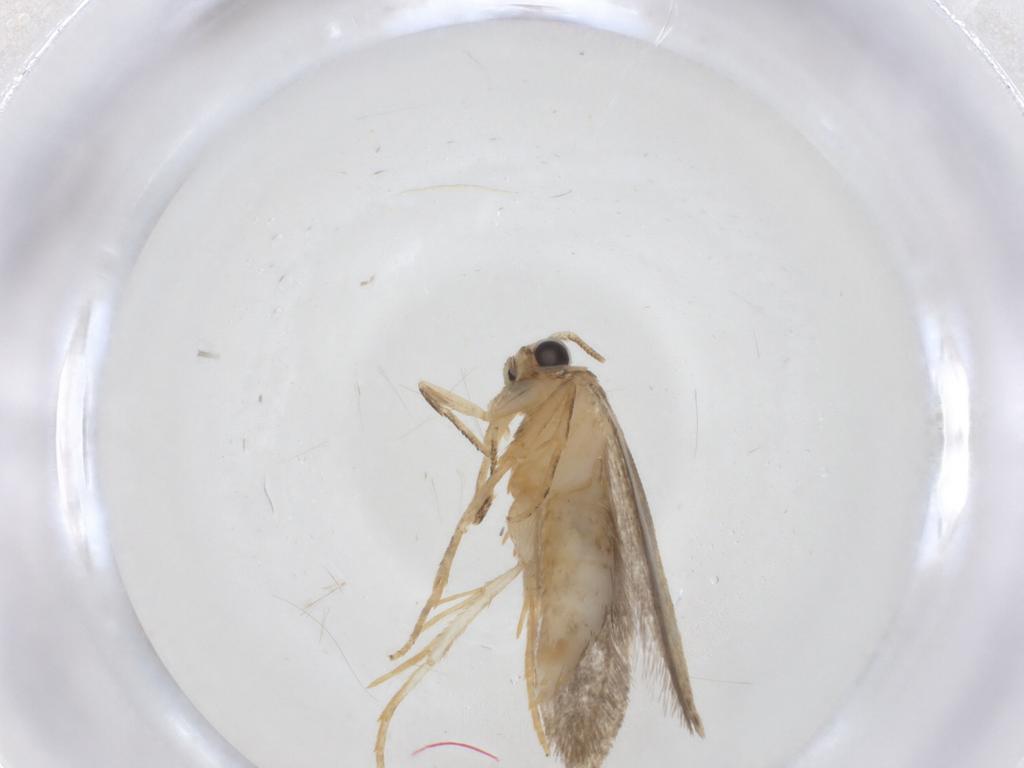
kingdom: Animalia
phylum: Arthropoda
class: Insecta
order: Lepidoptera
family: Tineidae
